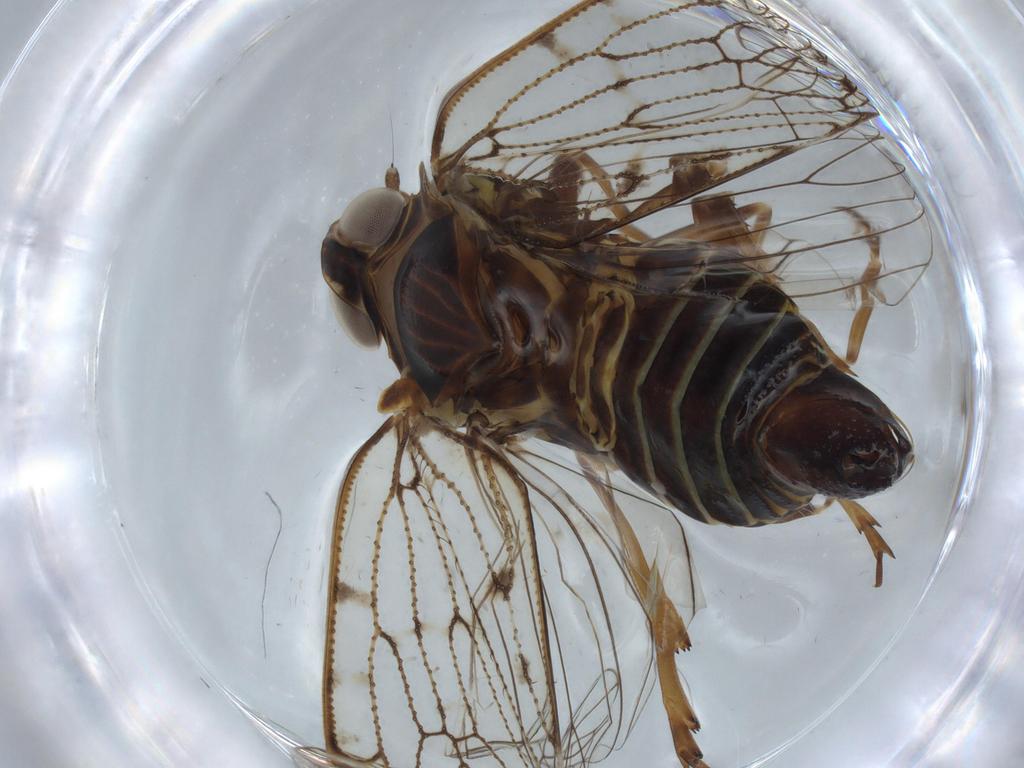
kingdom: Animalia
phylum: Arthropoda
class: Insecta
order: Hemiptera
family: Cixiidae
